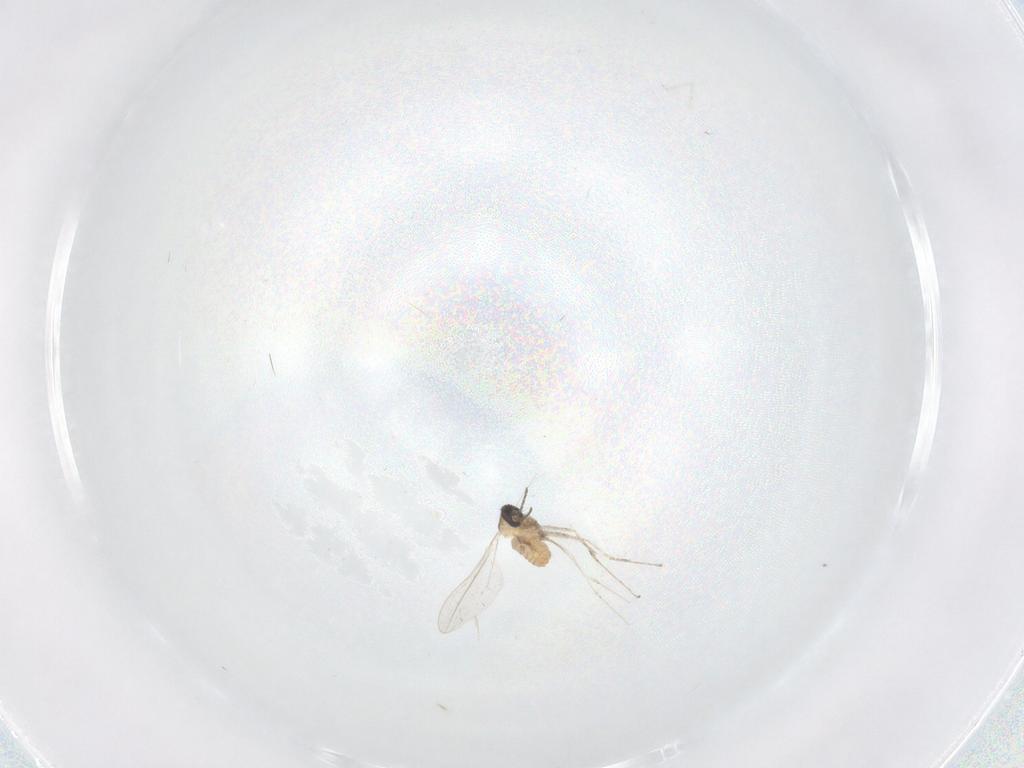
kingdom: Animalia
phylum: Arthropoda
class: Insecta
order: Diptera
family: Cecidomyiidae
